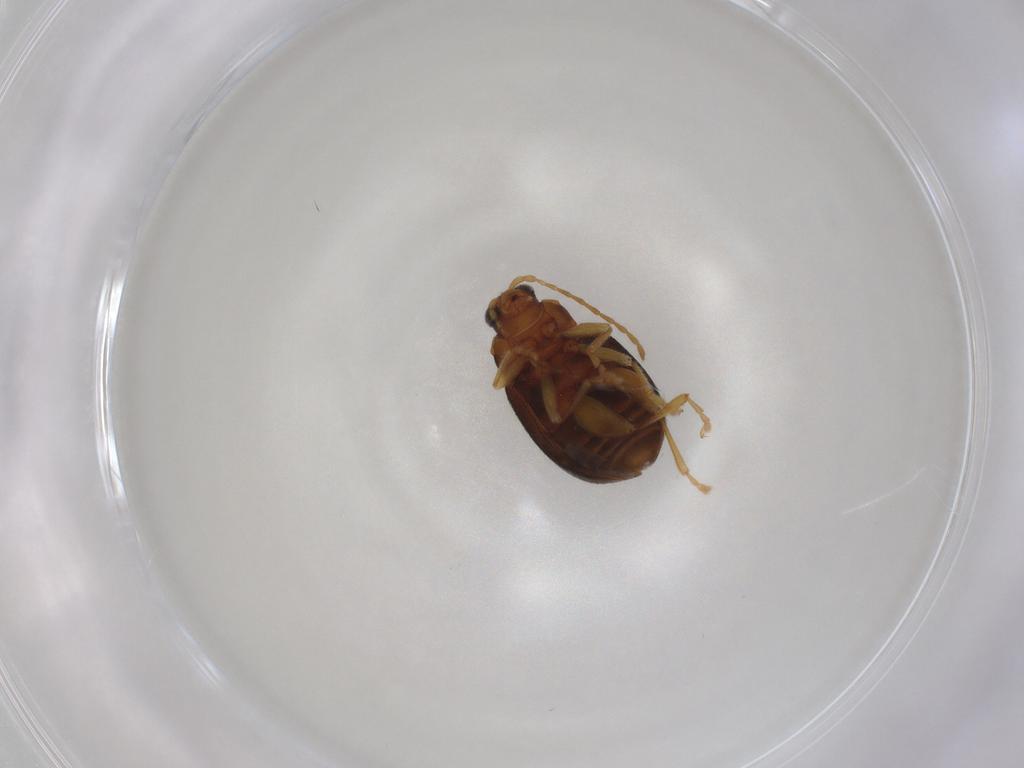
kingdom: Animalia
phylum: Arthropoda
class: Insecta
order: Coleoptera
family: Chrysomelidae
